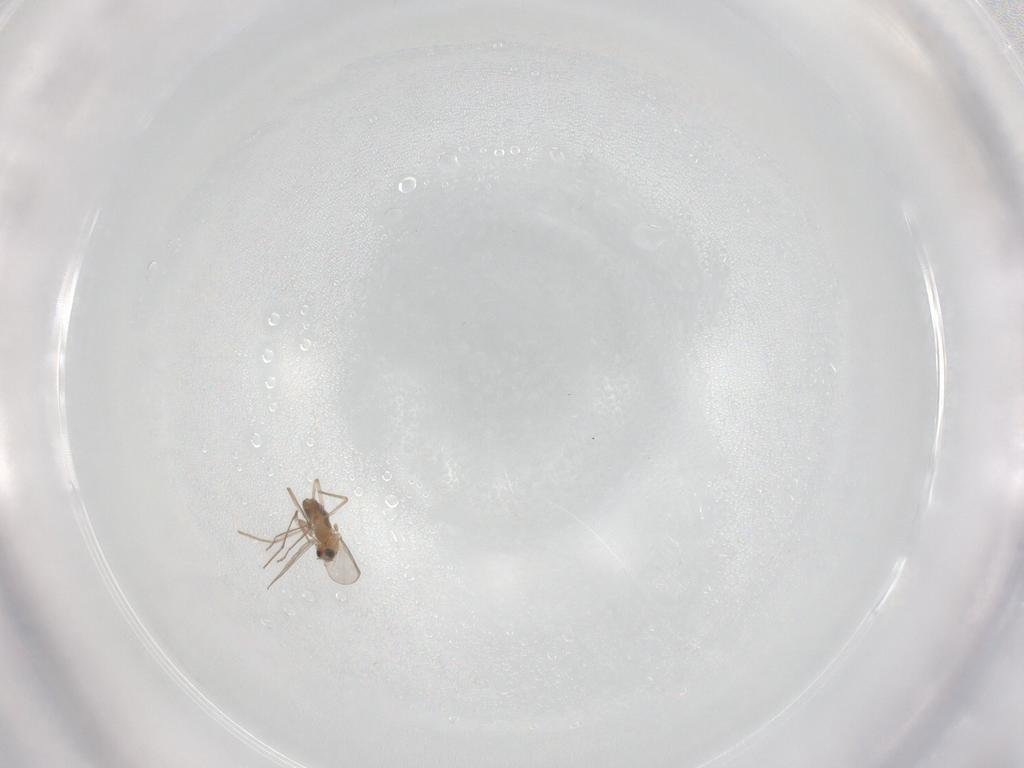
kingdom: Animalia
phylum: Arthropoda
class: Insecta
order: Diptera
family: Chironomidae
